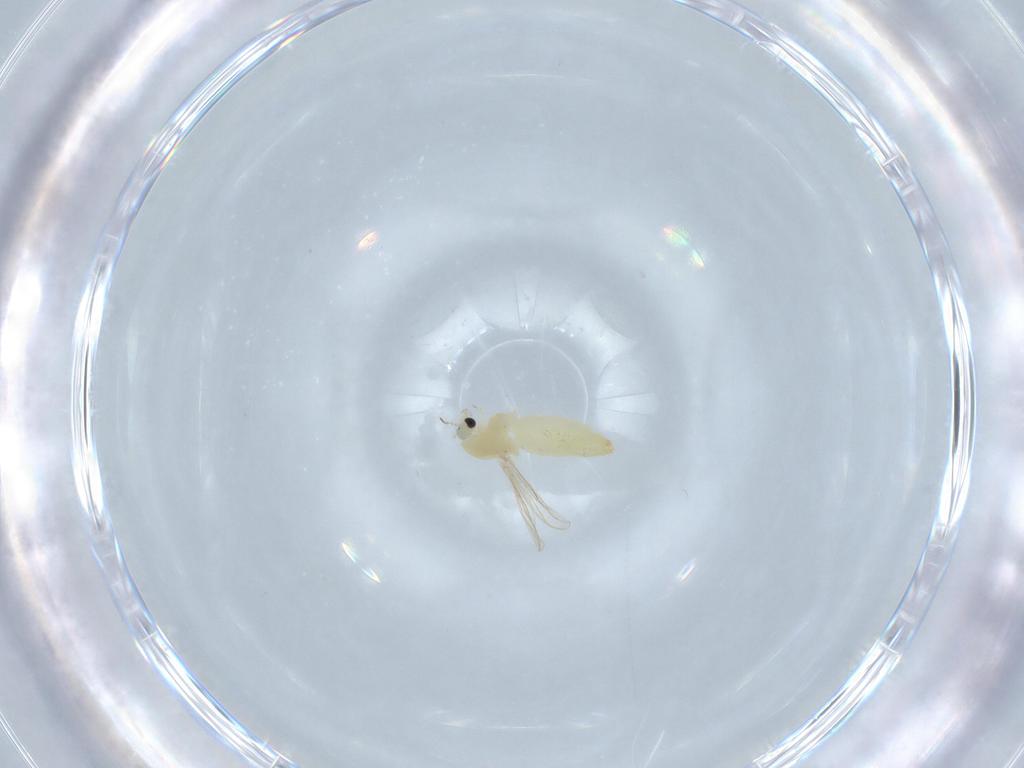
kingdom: Animalia
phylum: Arthropoda
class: Insecta
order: Diptera
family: Chironomidae
